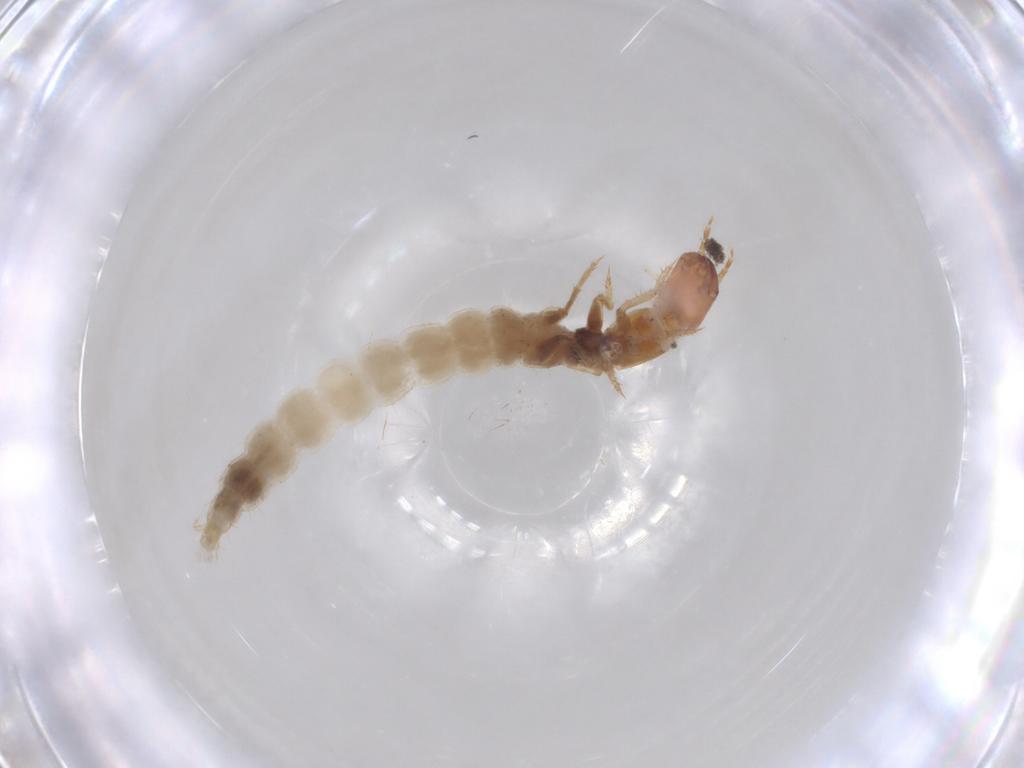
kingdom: Animalia
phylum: Arthropoda
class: Insecta
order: Coleoptera
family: Staphylinidae
